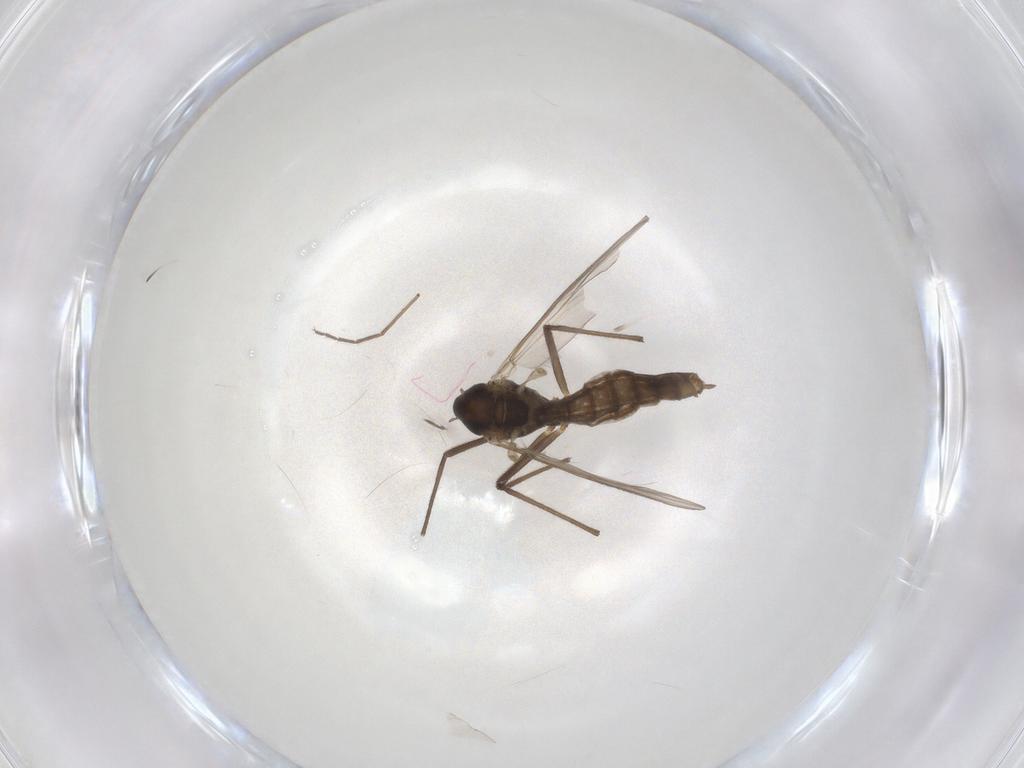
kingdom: Animalia
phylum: Arthropoda
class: Insecta
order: Diptera
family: Chironomidae
